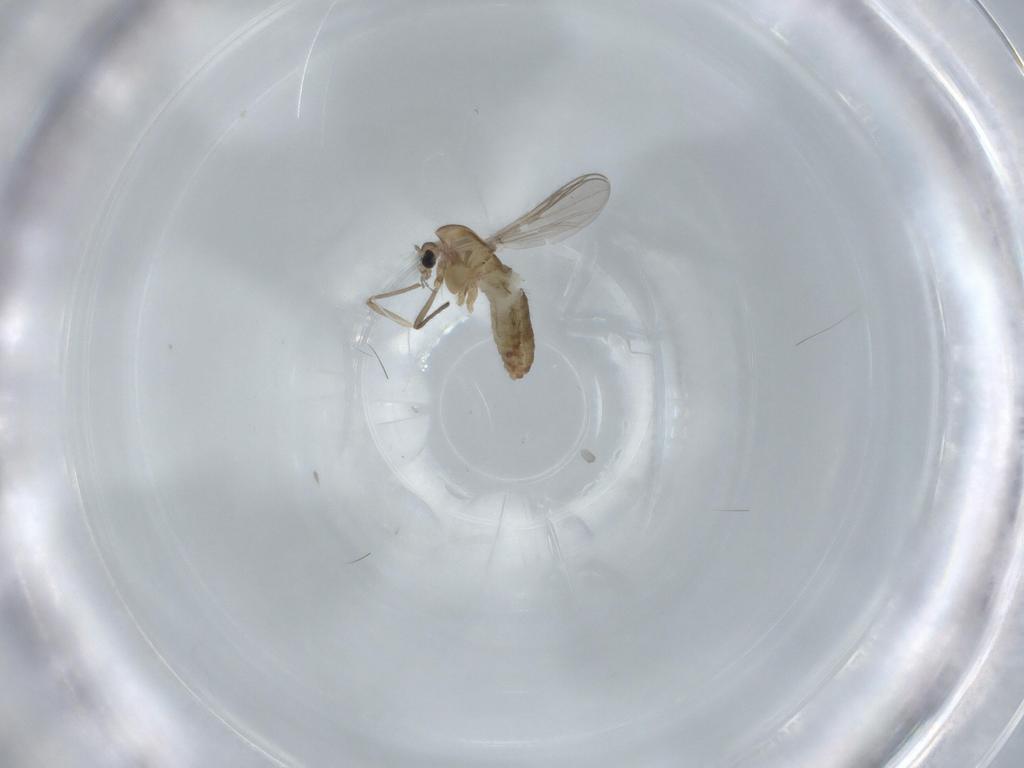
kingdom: Animalia
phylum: Arthropoda
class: Insecta
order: Diptera
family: Chironomidae
